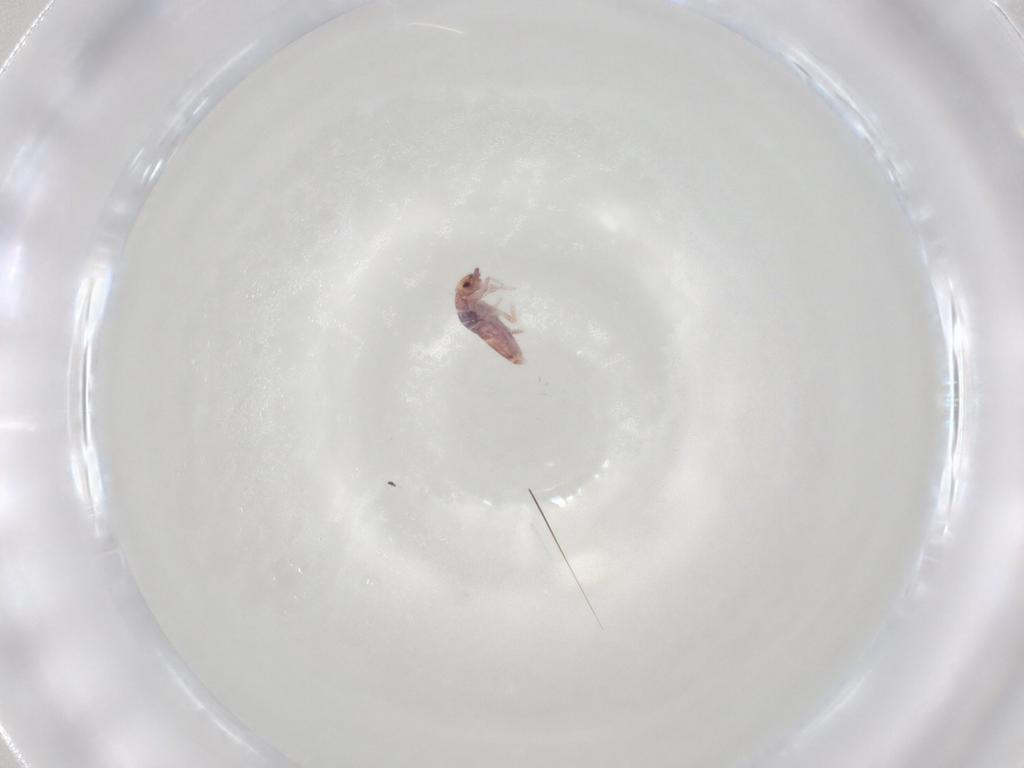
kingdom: Animalia
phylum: Arthropoda
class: Collembola
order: Entomobryomorpha
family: Entomobryidae
